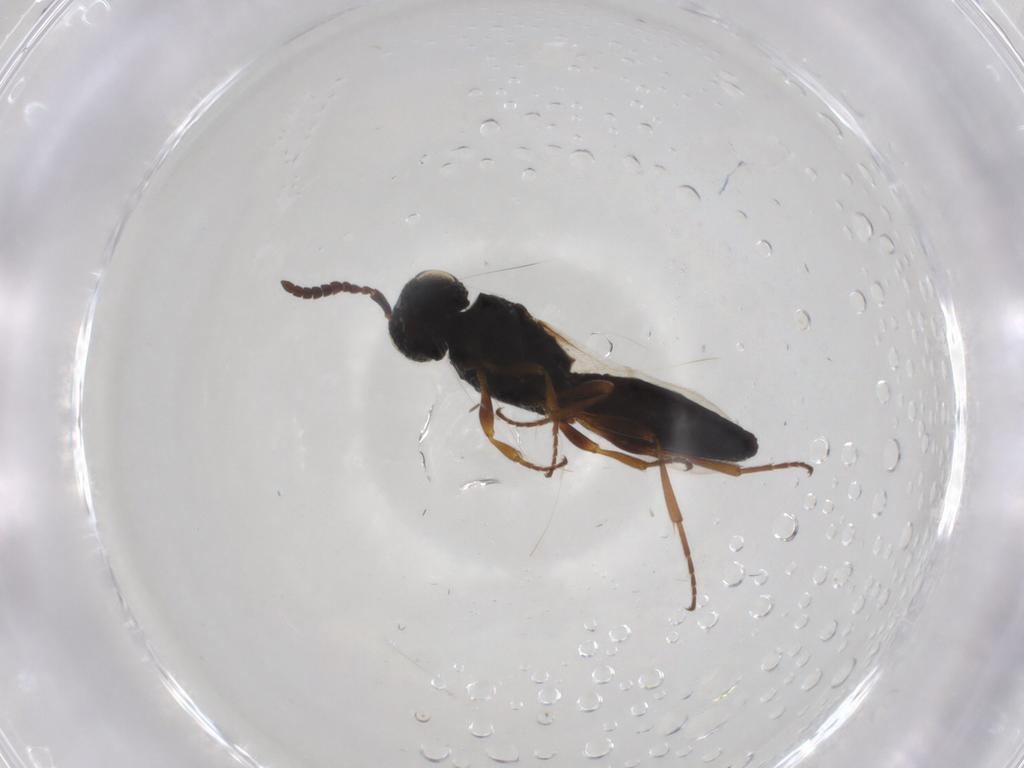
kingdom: Animalia
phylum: Arthropoda
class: Insecta
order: Hymenoptera
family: Scelionidae
